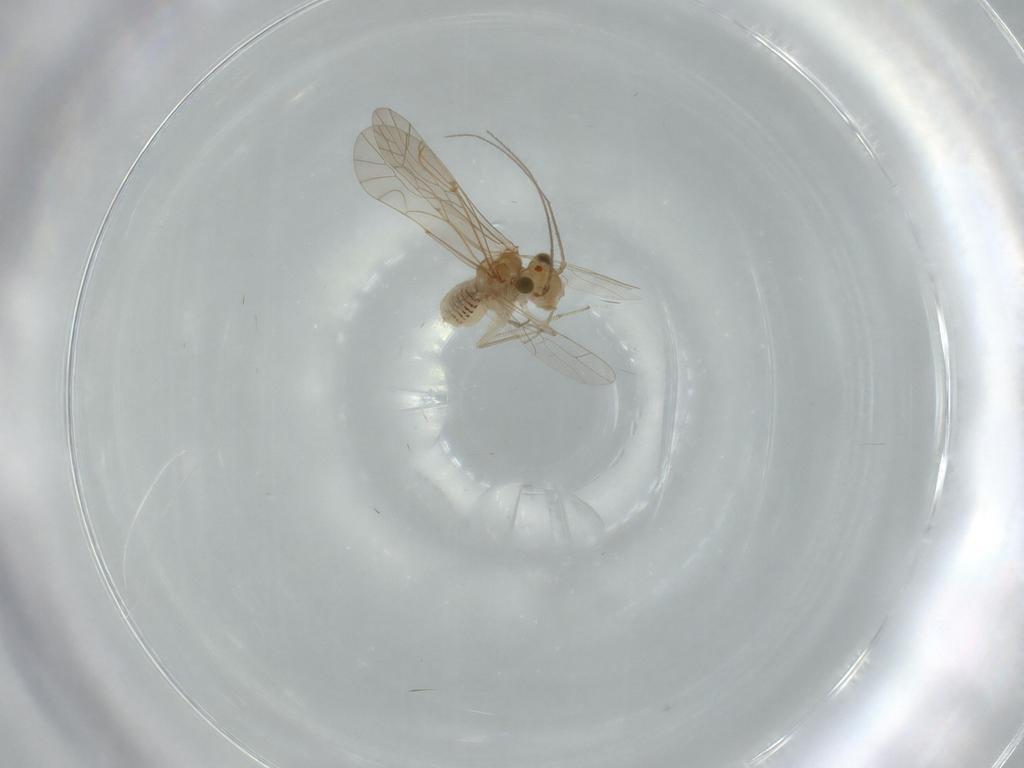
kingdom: Animalia
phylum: Arthropoda
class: Insecta
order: Psocodea
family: Lachesillidae
